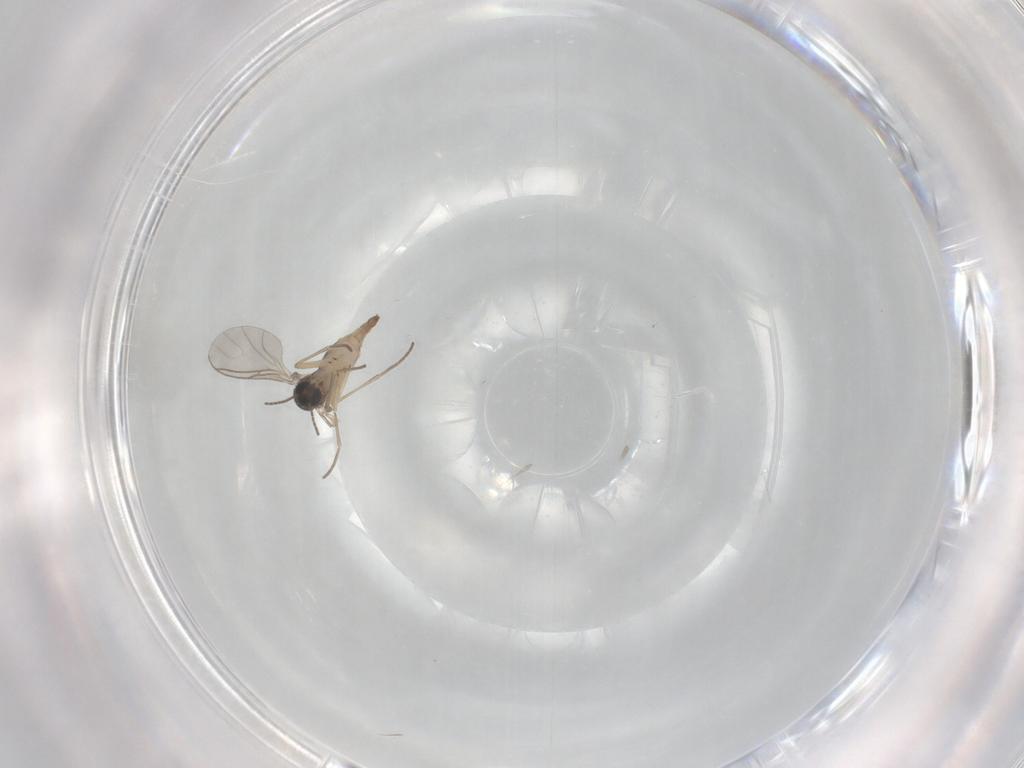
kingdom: Animalia
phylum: Arthropoda
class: Insecta
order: Diptera
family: Sciaridae
